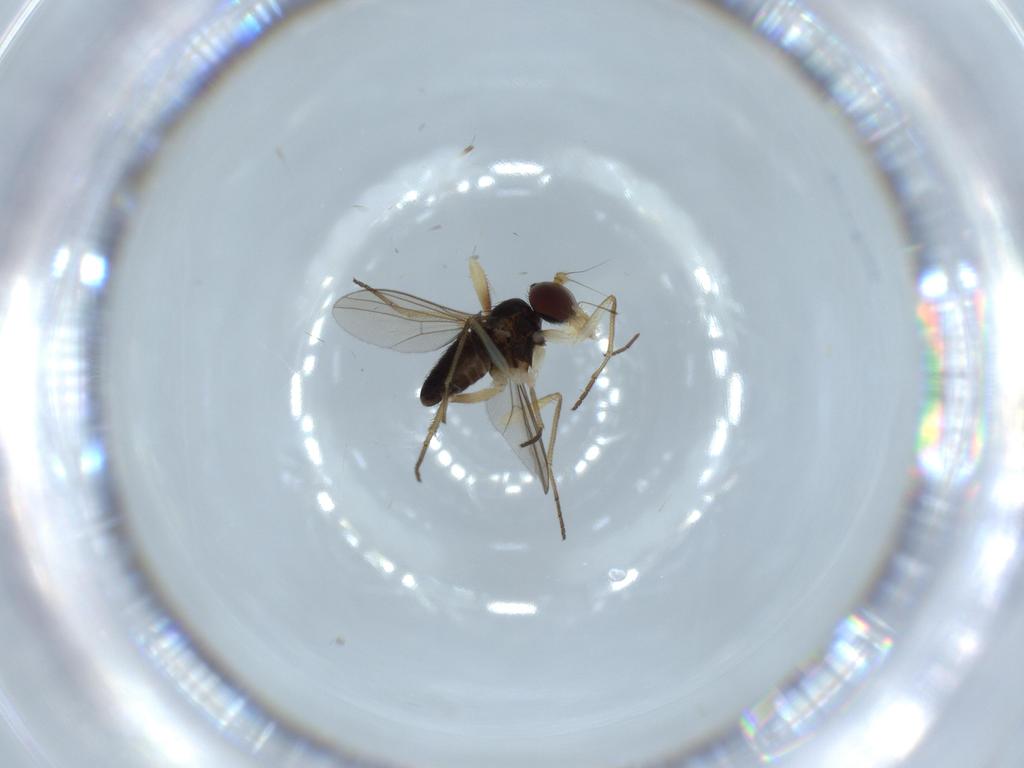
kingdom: Animalia
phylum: Arthropoda
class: Insecta
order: Diptera
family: Dolichopodidae
